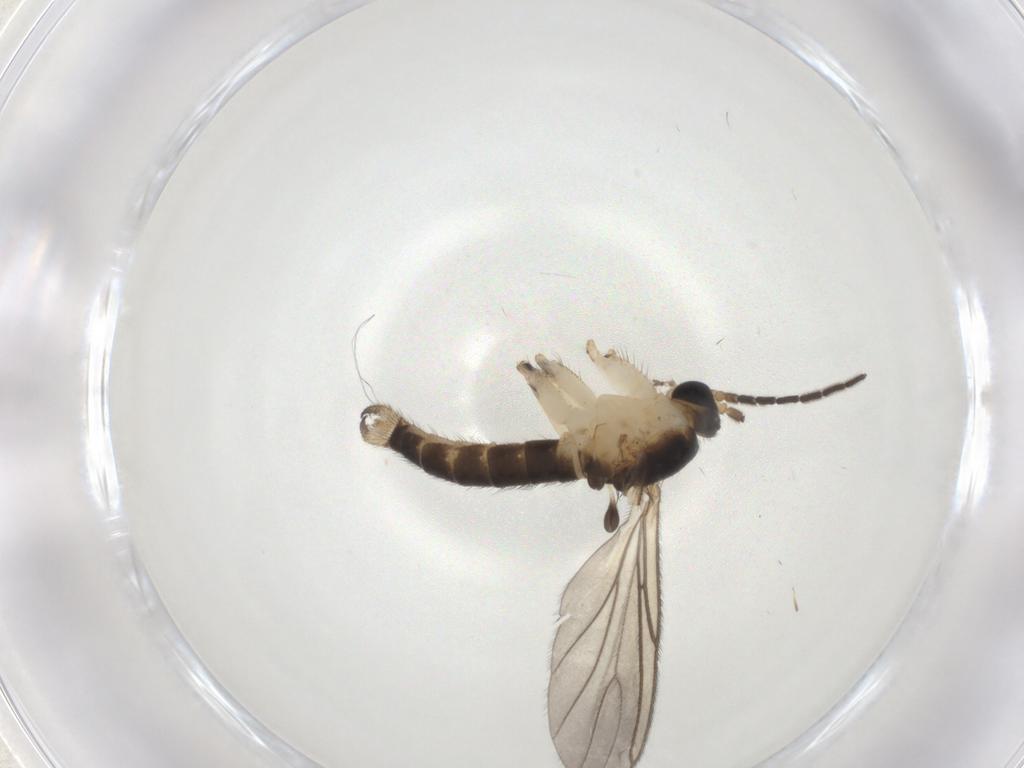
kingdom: Animalia
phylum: Arthropoda
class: Insecta
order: Diptera
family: Sciaridae
